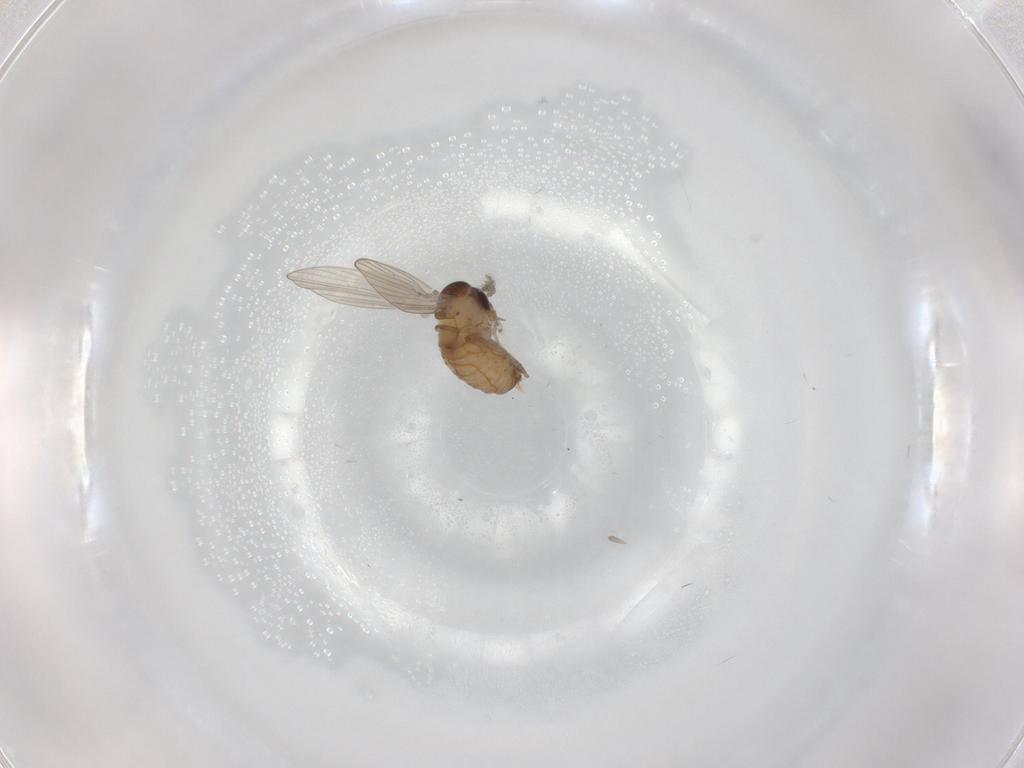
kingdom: Animalia
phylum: Arthropoda
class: Insecta
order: Diptera
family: Psychodidae
